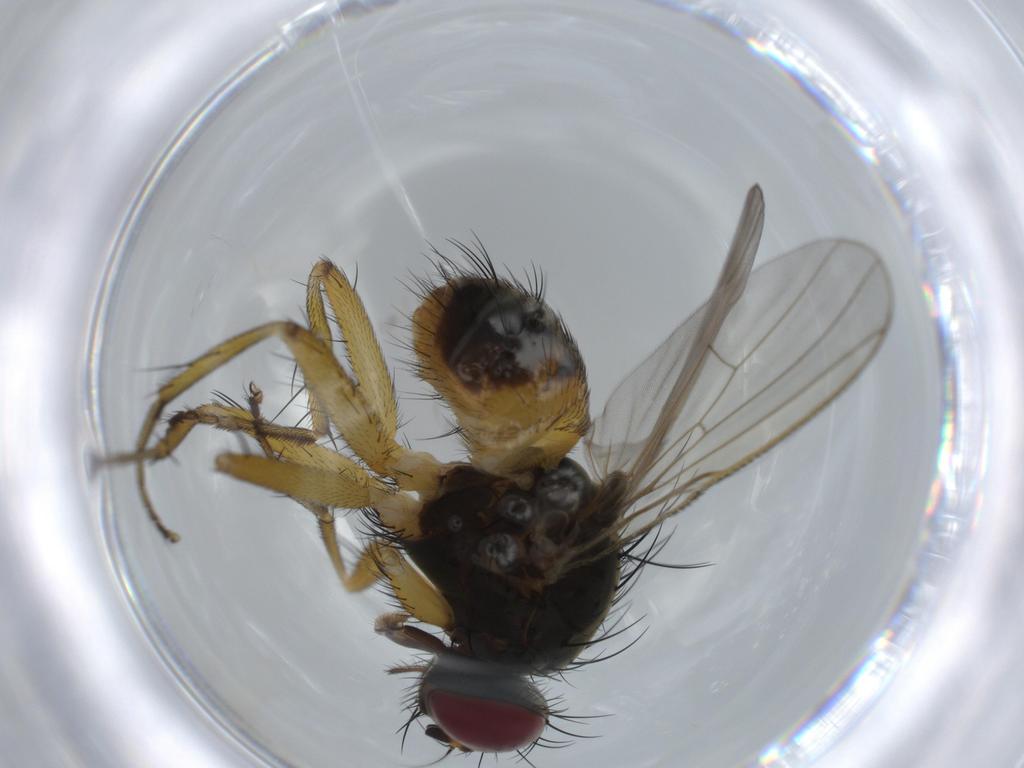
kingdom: Animalia
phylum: Arthropoda
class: Insecta
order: Diptera
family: Muscidae
